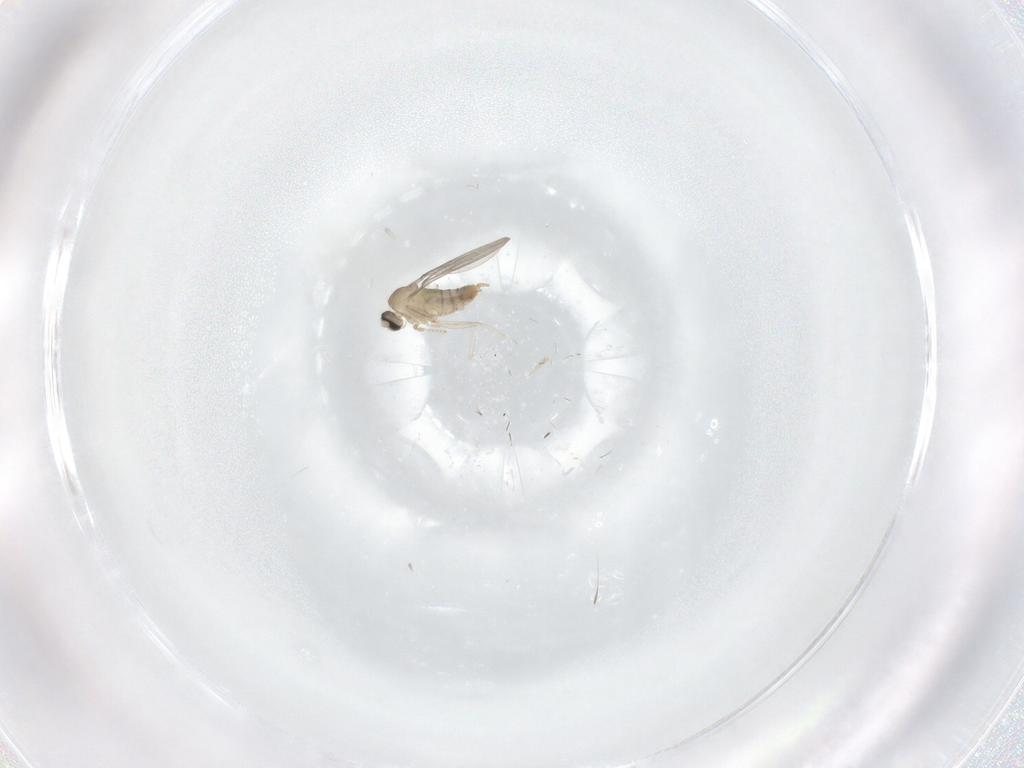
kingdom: Animalia
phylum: Arthropoda
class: Insecta
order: Diptera
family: Cecidomyiidae
